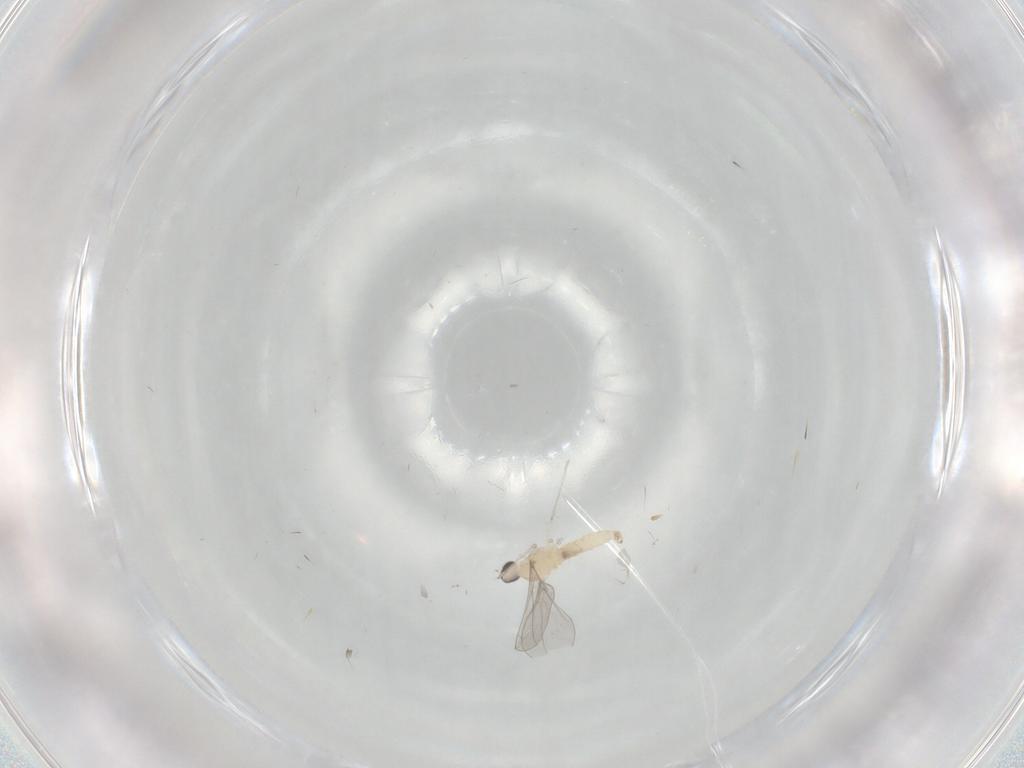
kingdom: Animalia
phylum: Arthropoda
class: Insecta
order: Diptera
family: Cecidomyiidae
